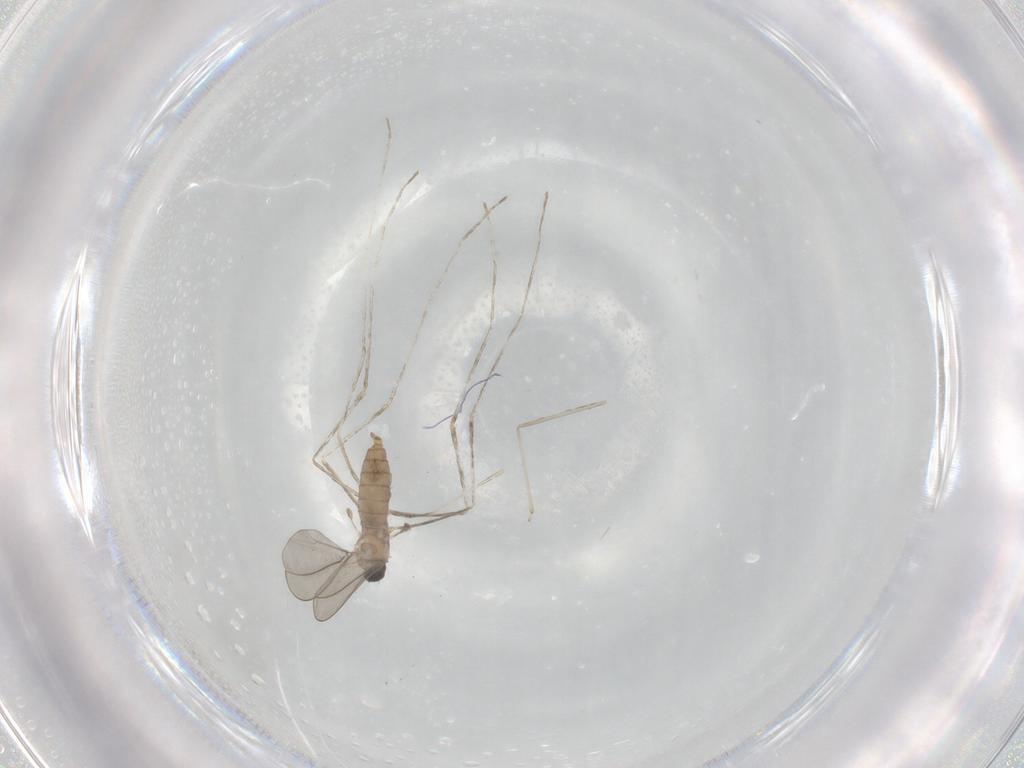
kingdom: Animalia
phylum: Arthropoda
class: Insecta
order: Diptera
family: Cecidomyiidae
